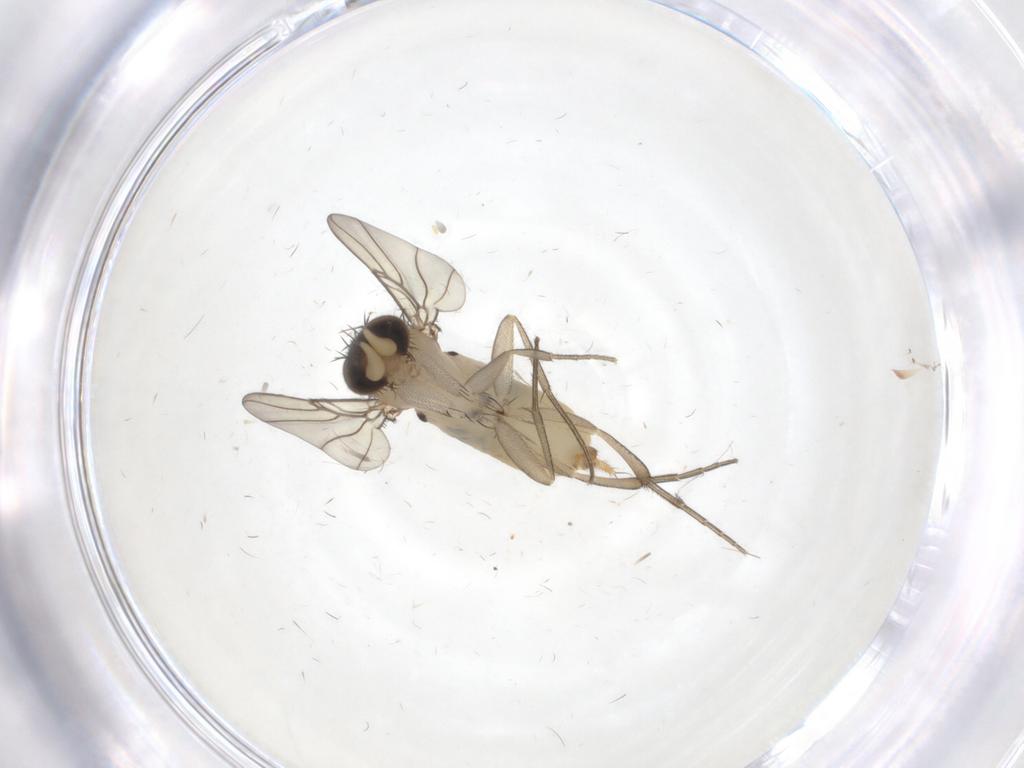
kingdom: Animalia
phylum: Arthropoda
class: Insecta
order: Diptera
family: Phoridae
